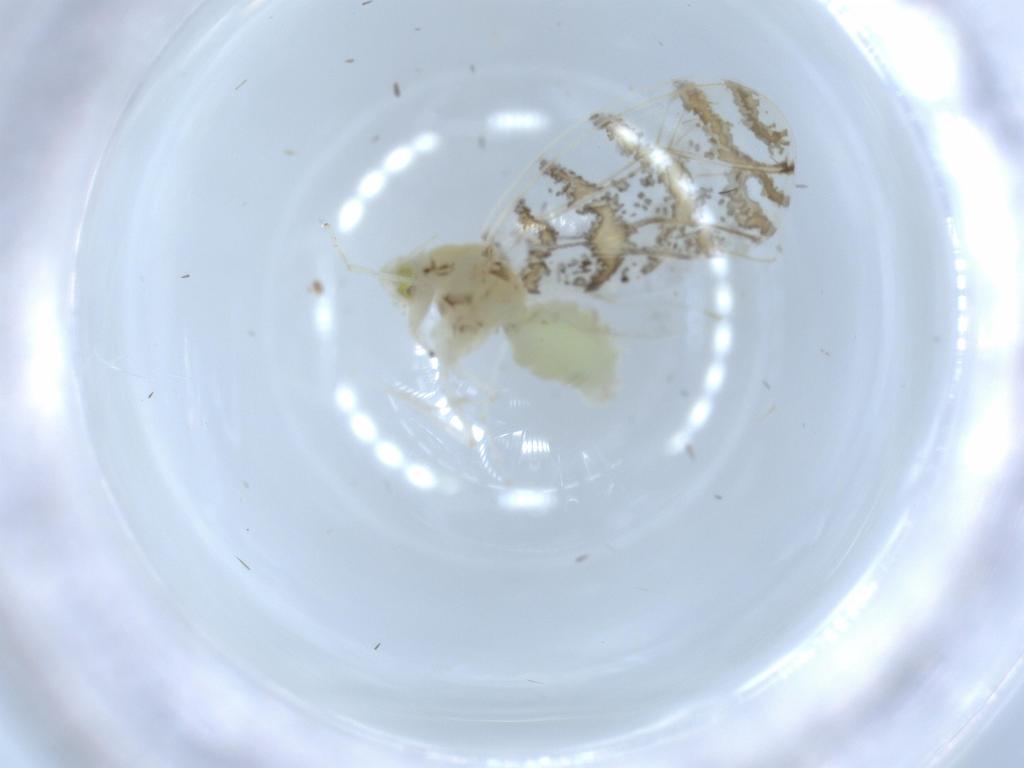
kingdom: Animalia
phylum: Arthropoda
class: Insecta
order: Hemiptera
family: Aleyrodidae
